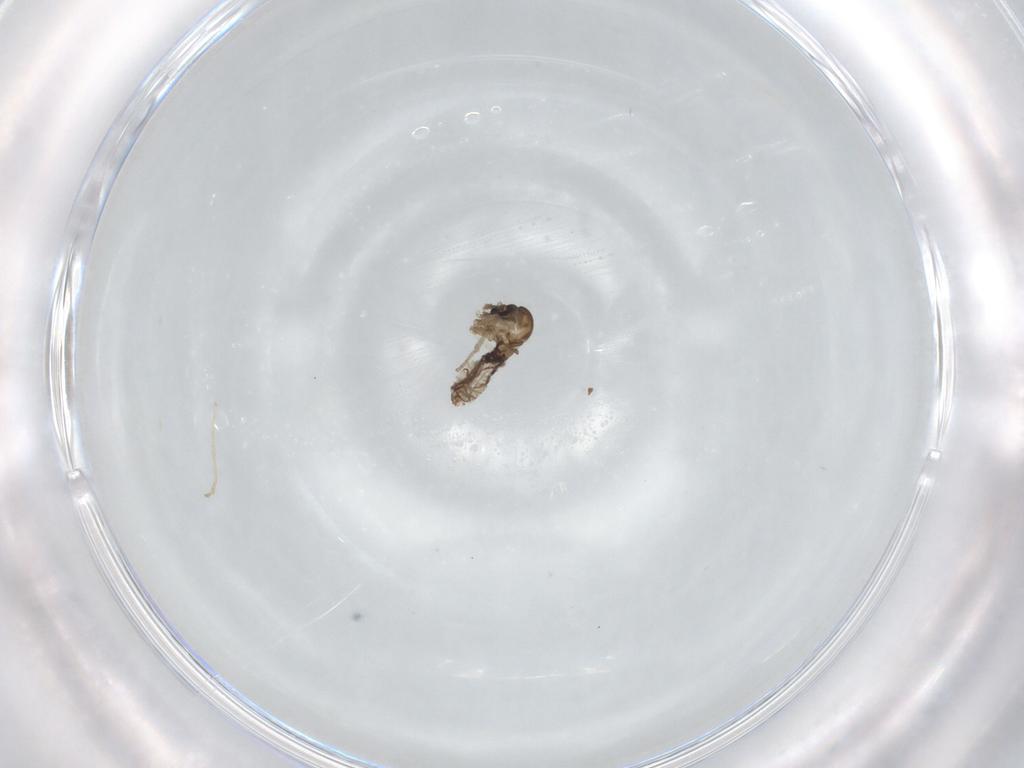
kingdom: Animalia
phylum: Arthropoda
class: Insecta
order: Diptera
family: Psychodidae
